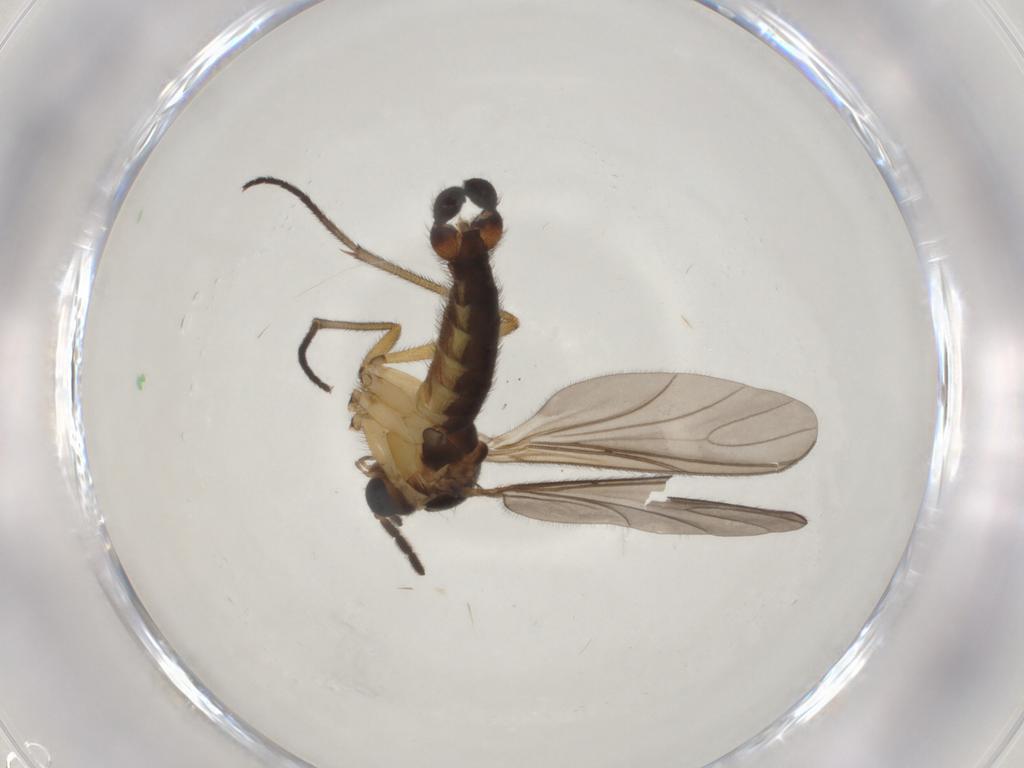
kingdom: Animalia
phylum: Arthropoda
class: Insecta
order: Diptera
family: Sciaridae
